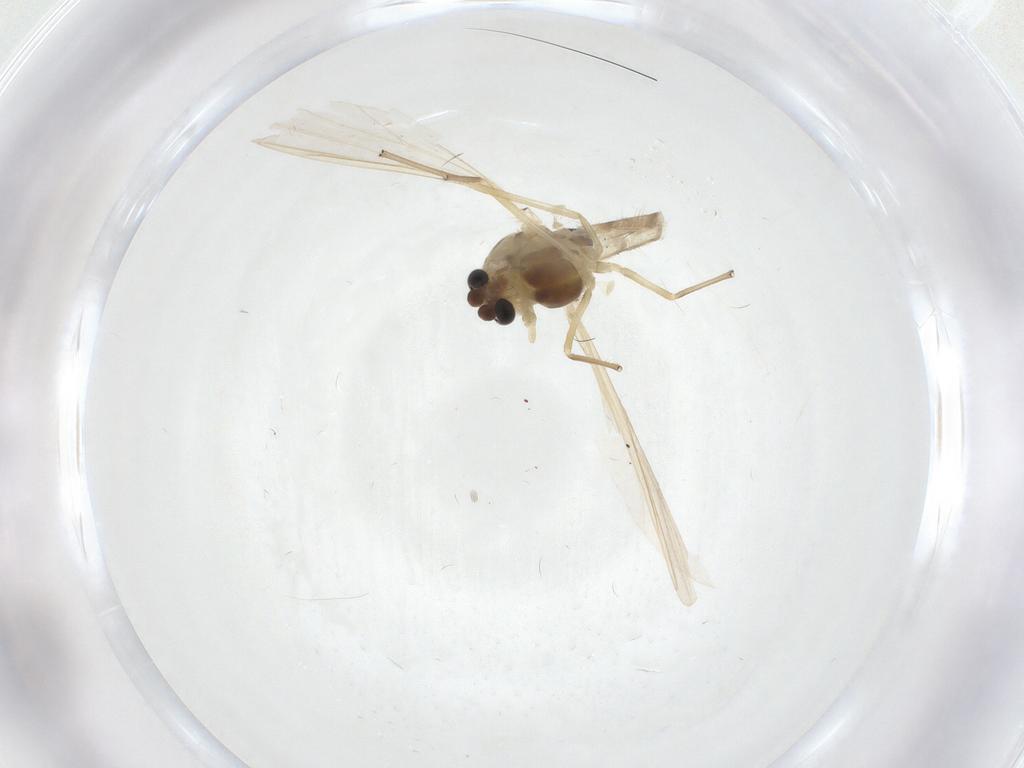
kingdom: Animalia
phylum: Arthropoda
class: Insecta
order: Diptera
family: Chironomidae
